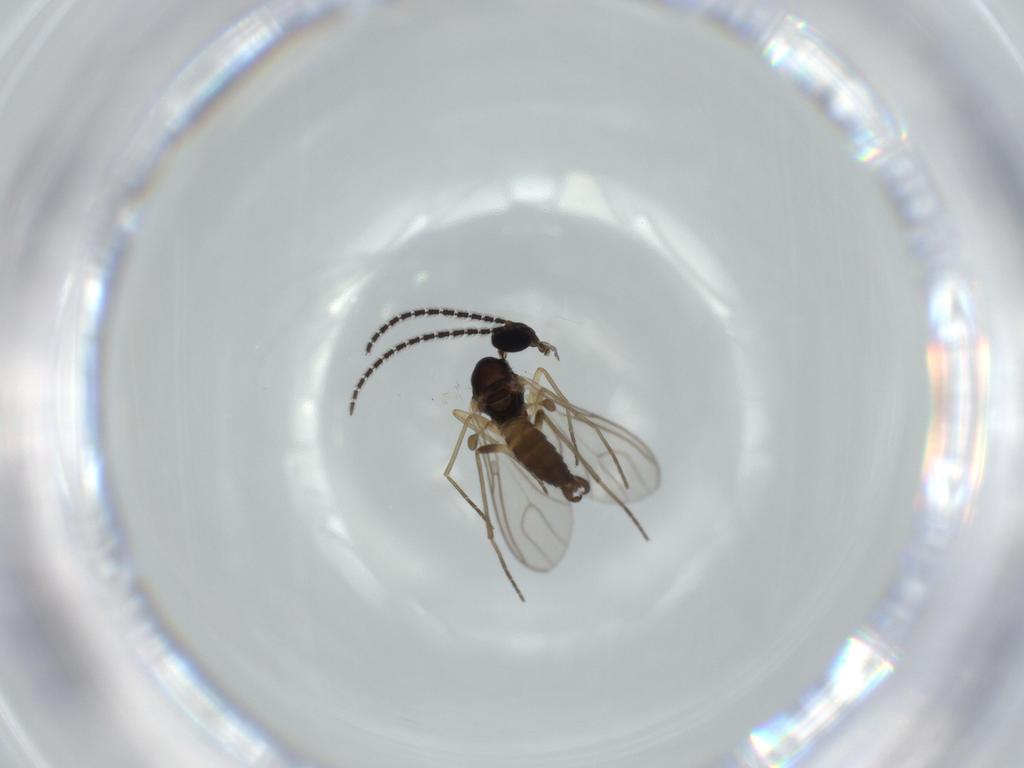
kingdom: Animalia
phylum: Arthropoda
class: Insecta
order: Diptera
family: Sciaridae
